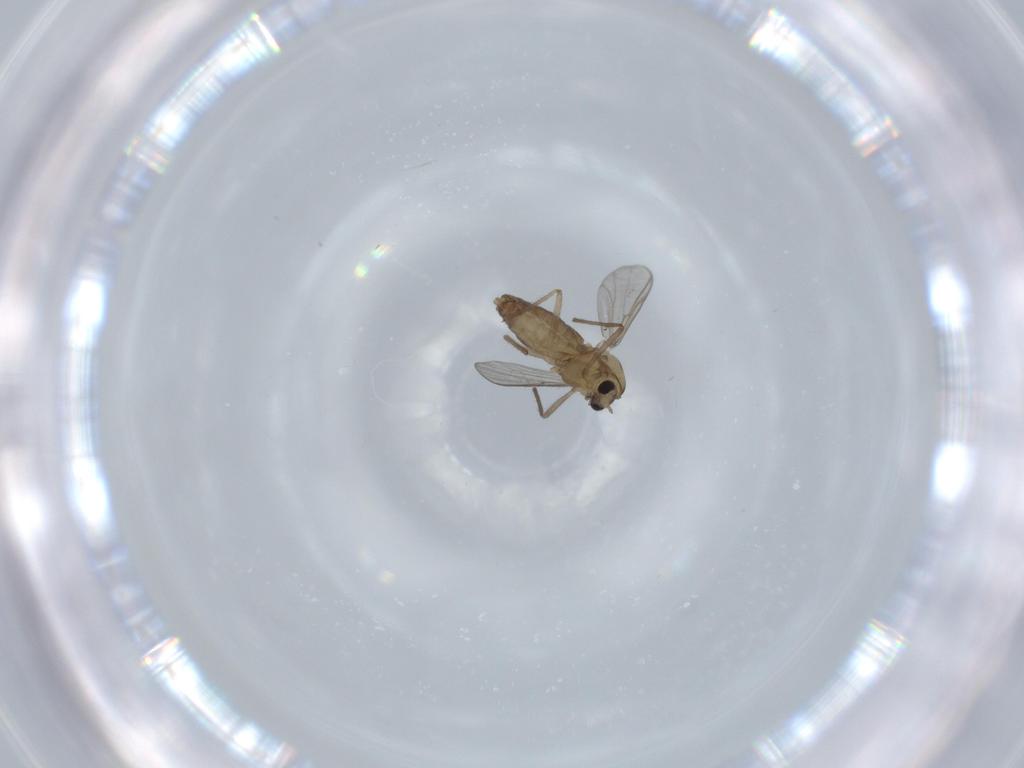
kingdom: Animalia
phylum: Arthropoda
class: Insecta
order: Diptera
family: Chironomidae
